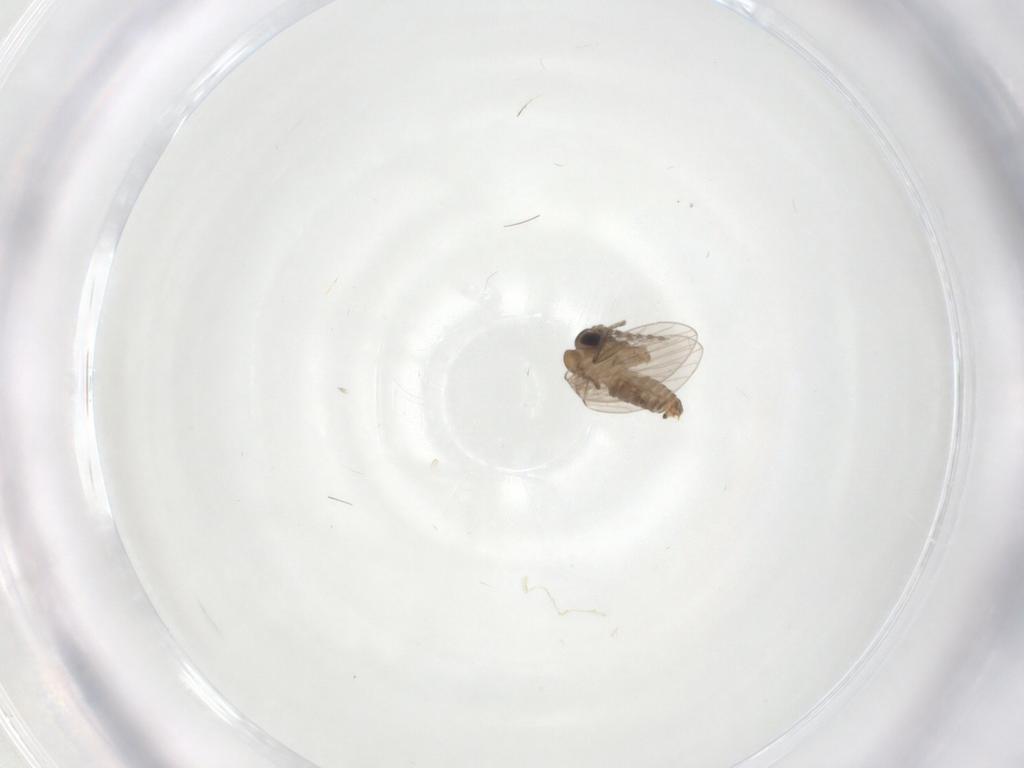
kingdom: Animalia
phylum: Arthropoda
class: Insecta
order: Diptera
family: Psychodidae
